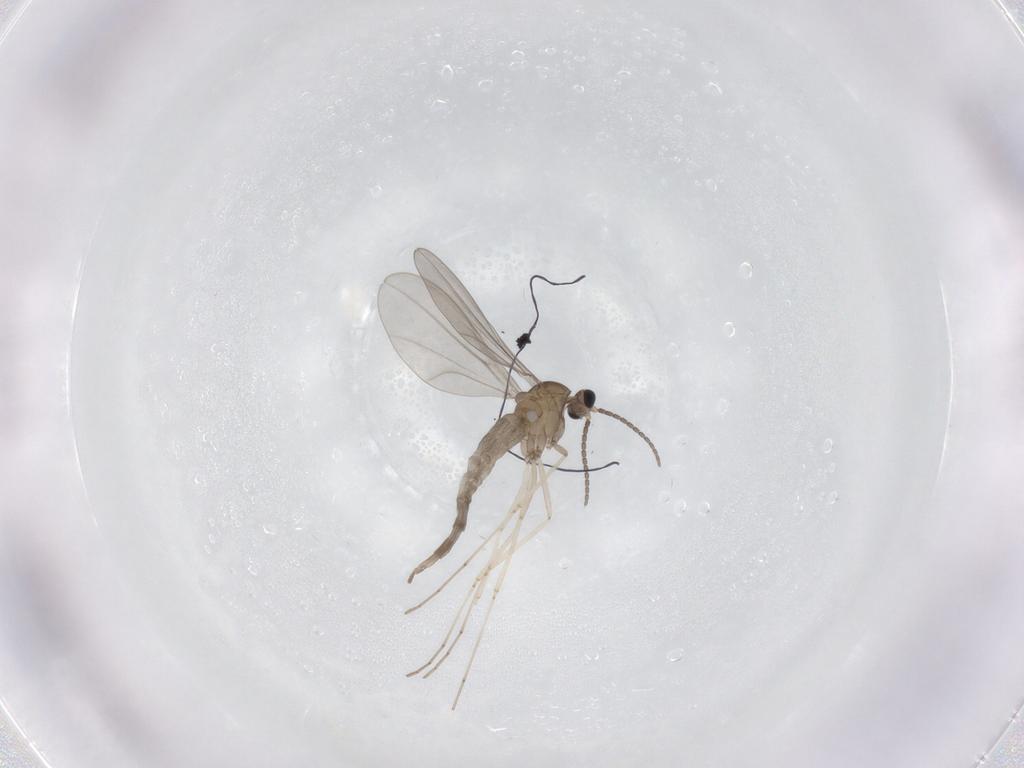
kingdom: Animalia
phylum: Arthropoda
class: Insecta
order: Diptera
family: Cecidomyiidae
